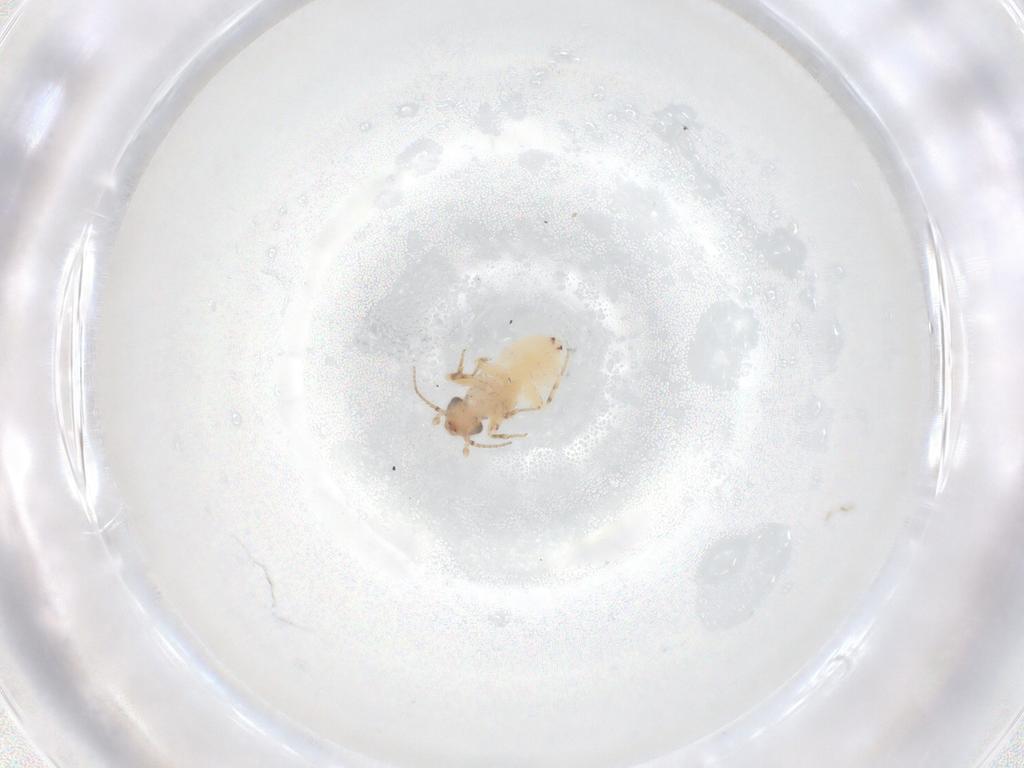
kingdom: Animalia
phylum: Arthropoda
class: Insecta
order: Psocodea
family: Lepidopsocidae
